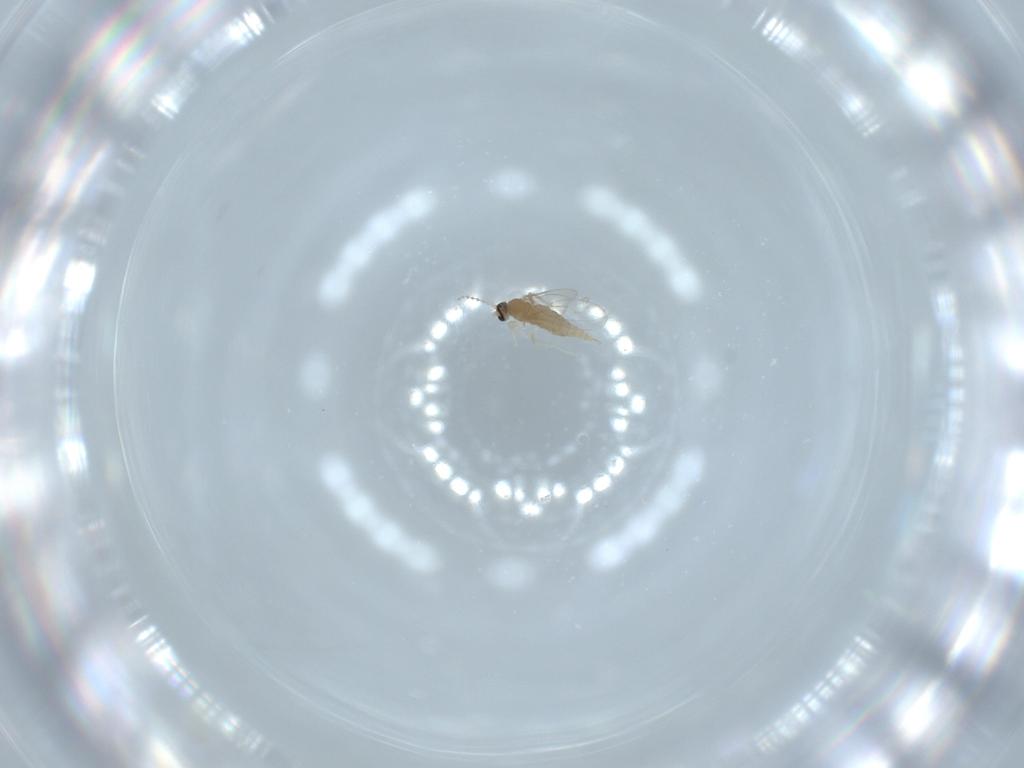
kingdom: Animalia
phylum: Arthropoda
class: Insecta
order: Diptera
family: Cecidomyiidae
